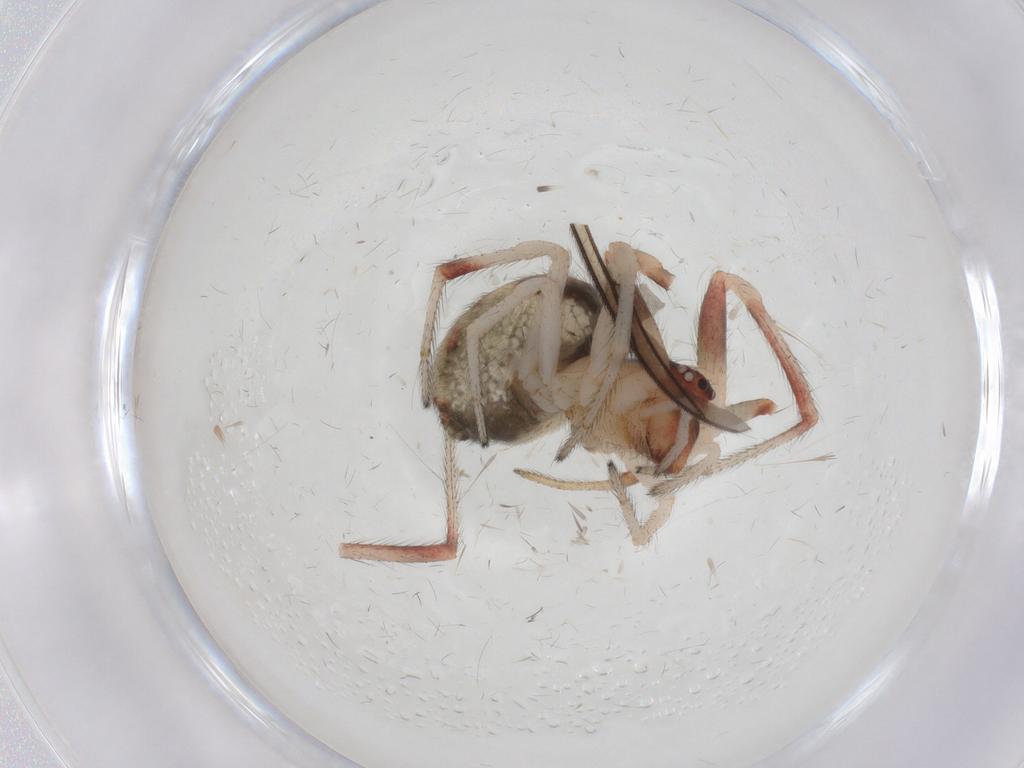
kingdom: Animalia
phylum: Arthropoda
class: Arachnida
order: Araneae
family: Theridiidae
